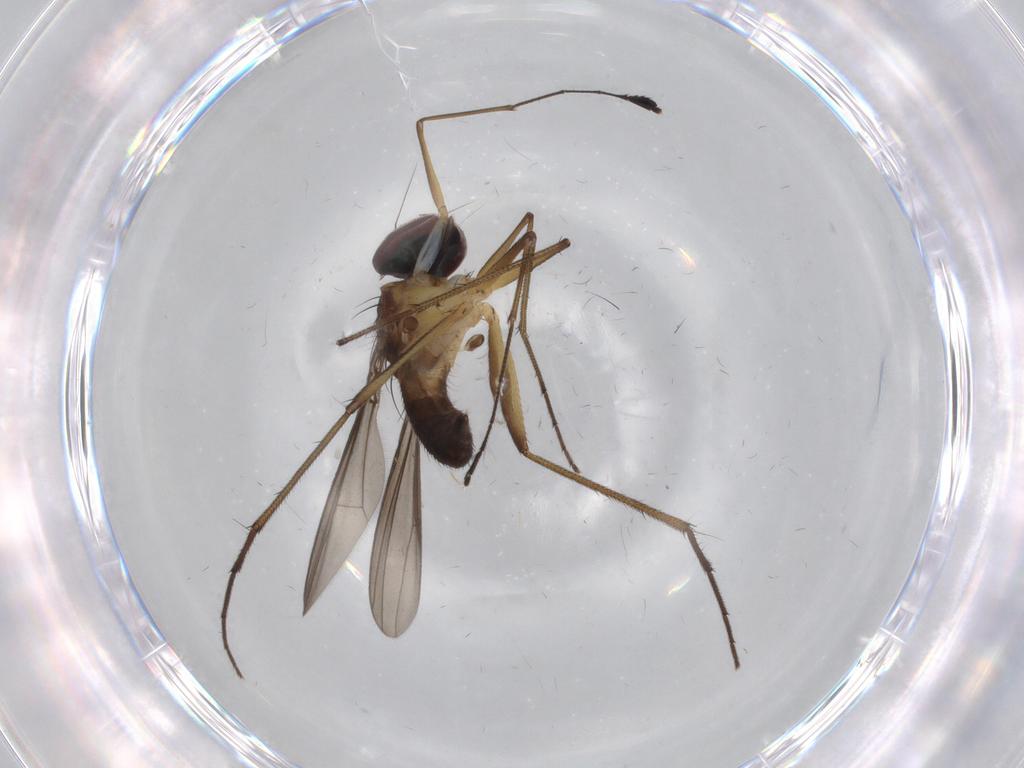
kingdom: Animalia
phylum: Arthropoda
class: Insecta
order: Diptera
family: Dolichopodidae
